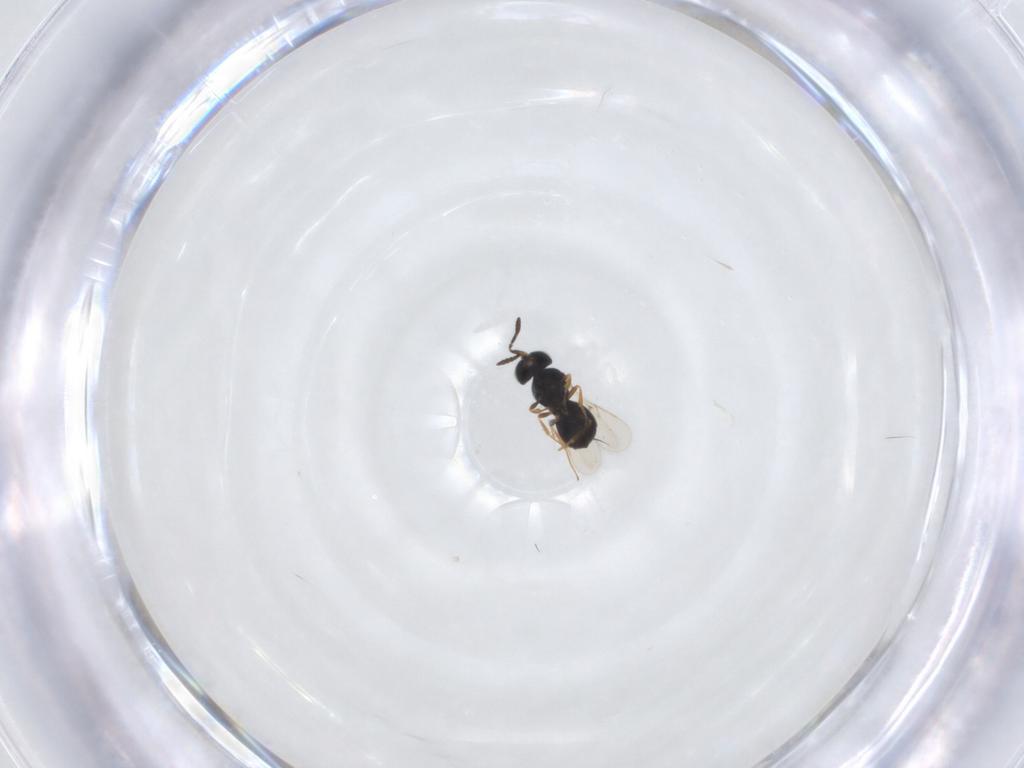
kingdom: Animalia
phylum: Arthropoda
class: Insecta
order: Hymenoptera
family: Scelionidae
